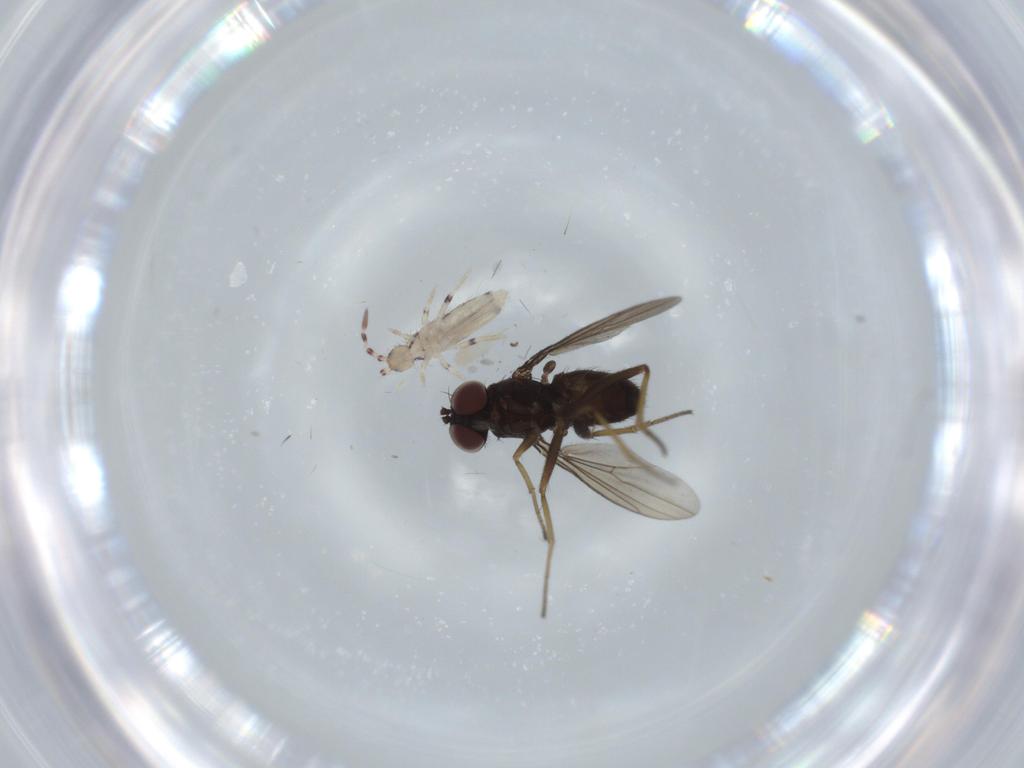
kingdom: Animalia
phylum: Arthropoda
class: Insecta
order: Diptera
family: Dolichopodidae
